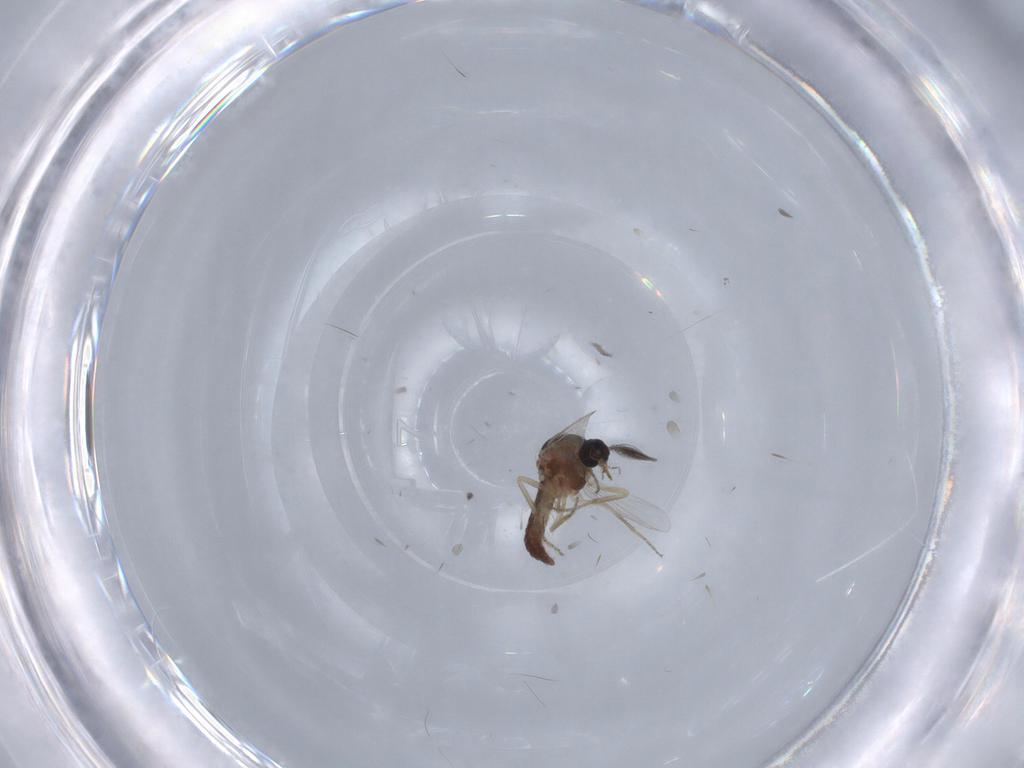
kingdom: Animalia
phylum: Arthropoda
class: Insecta
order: Diptera
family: Ceratopogonidae
